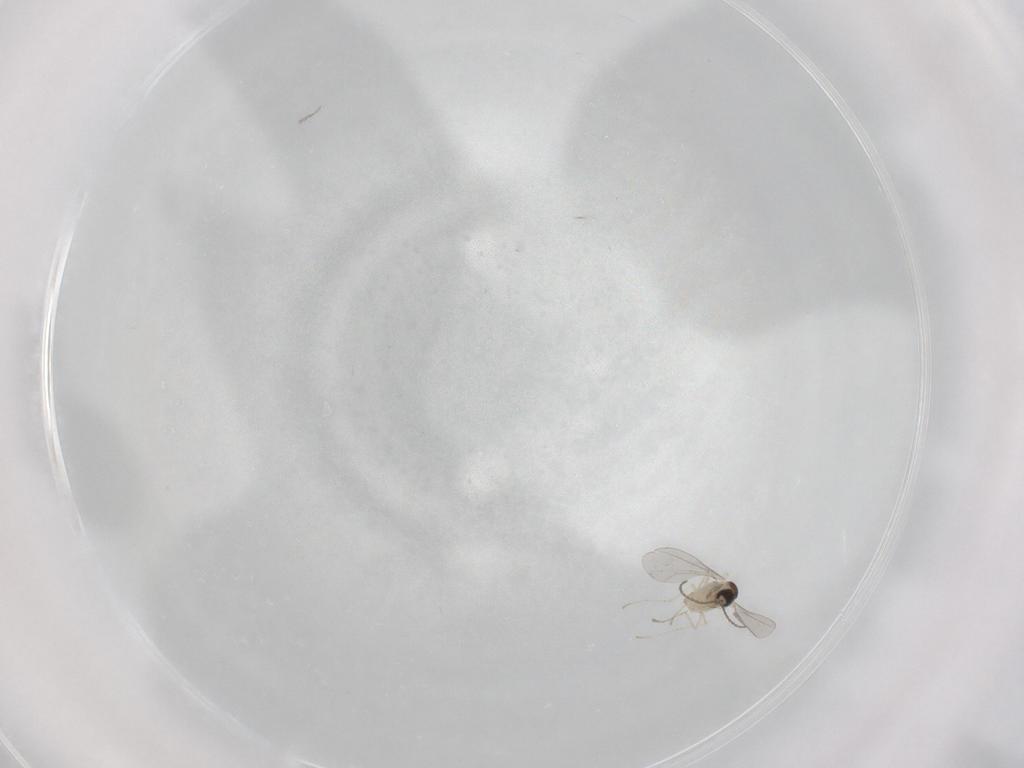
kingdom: Animalia
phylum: Arthropoda
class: Insecta
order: Diptera
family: Cecidomyiidae
